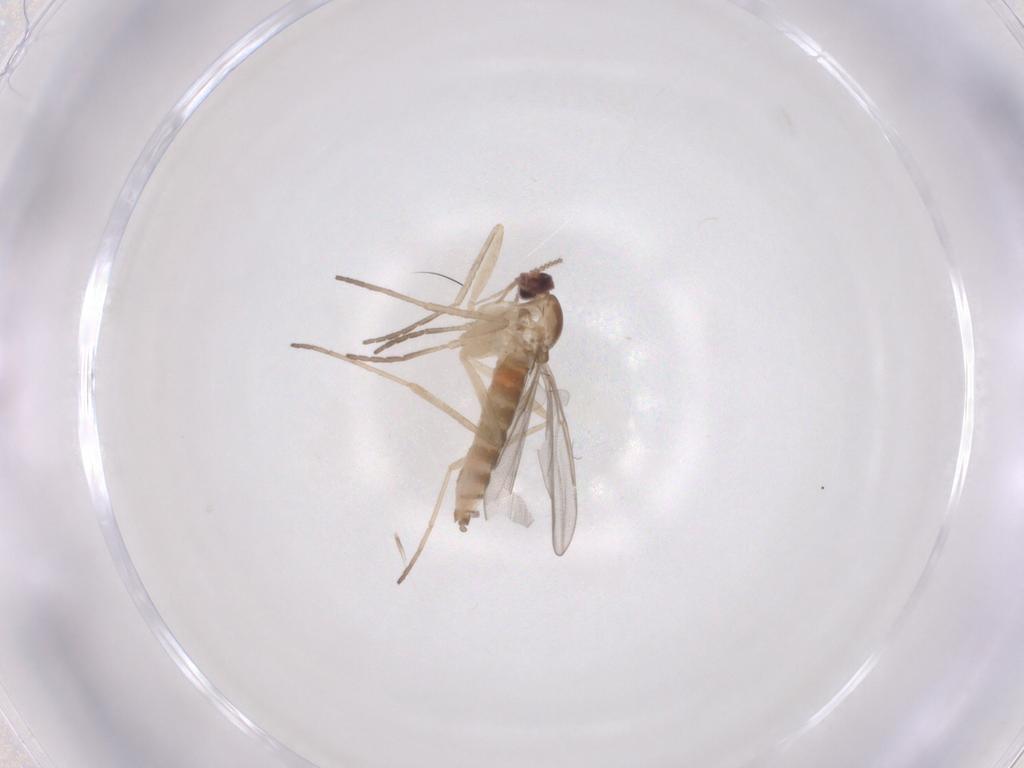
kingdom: Animalia
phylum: Arthropoda
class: Insecta
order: Diptera
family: Cecidomyiidae
